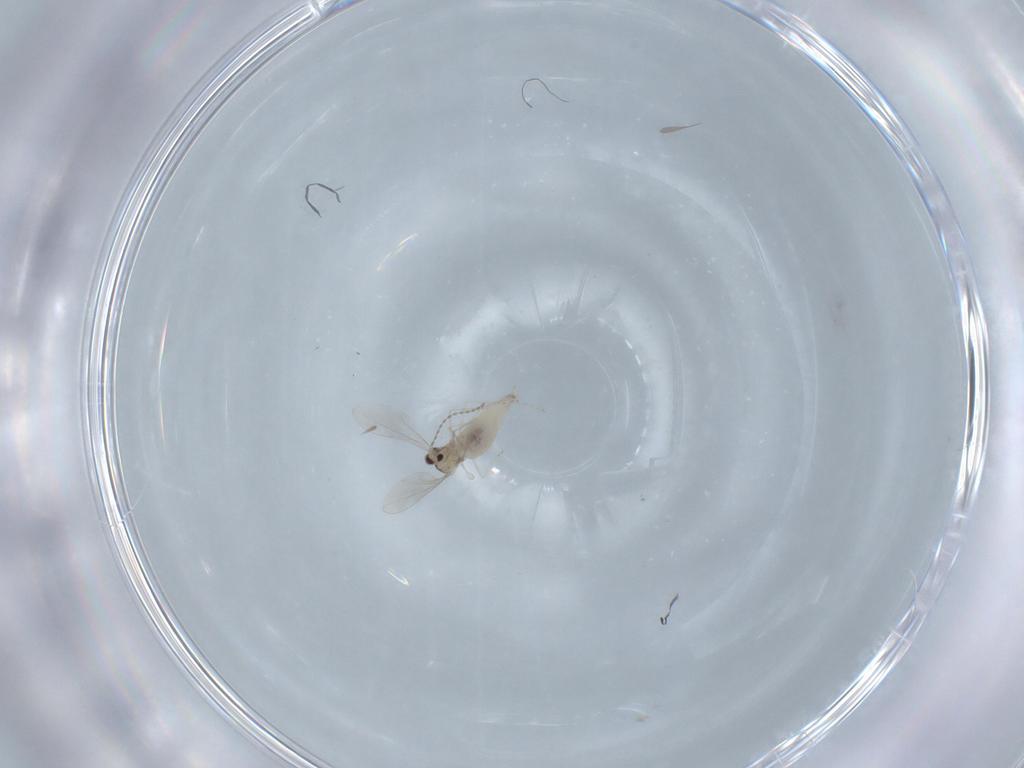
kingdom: Animalia
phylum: Arthropoda
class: Insecta
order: Diptera
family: Cecidomyiidae
